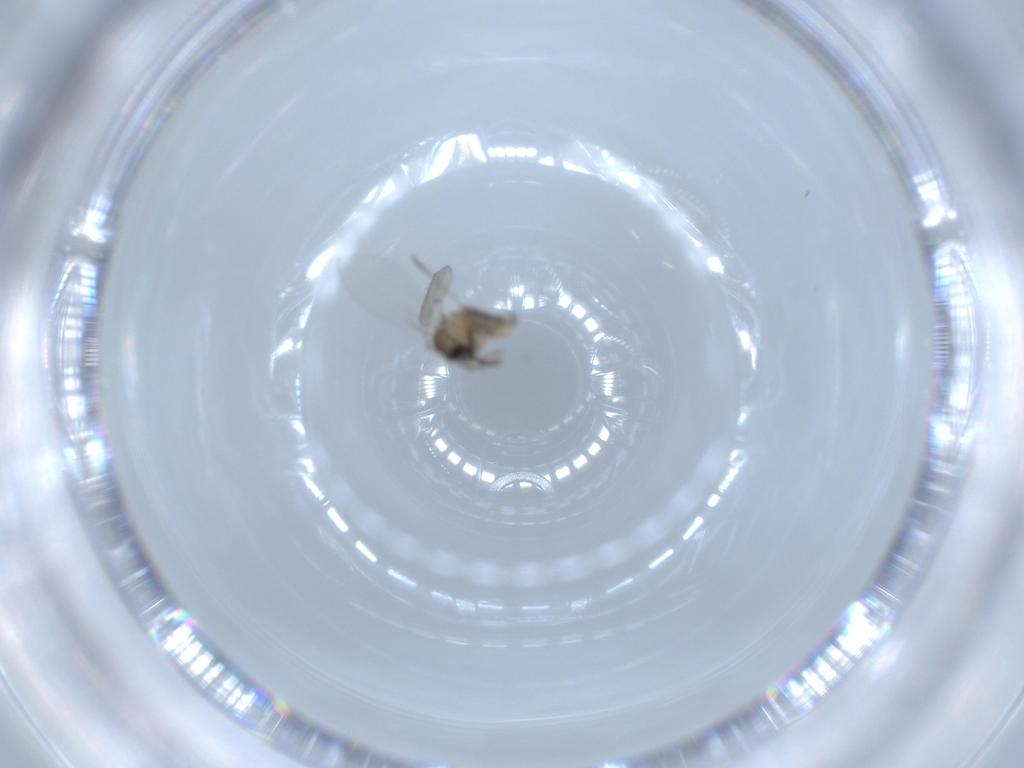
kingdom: Animalia
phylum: Arthropoda
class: Insecta
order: Diptera
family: Psychodidae
